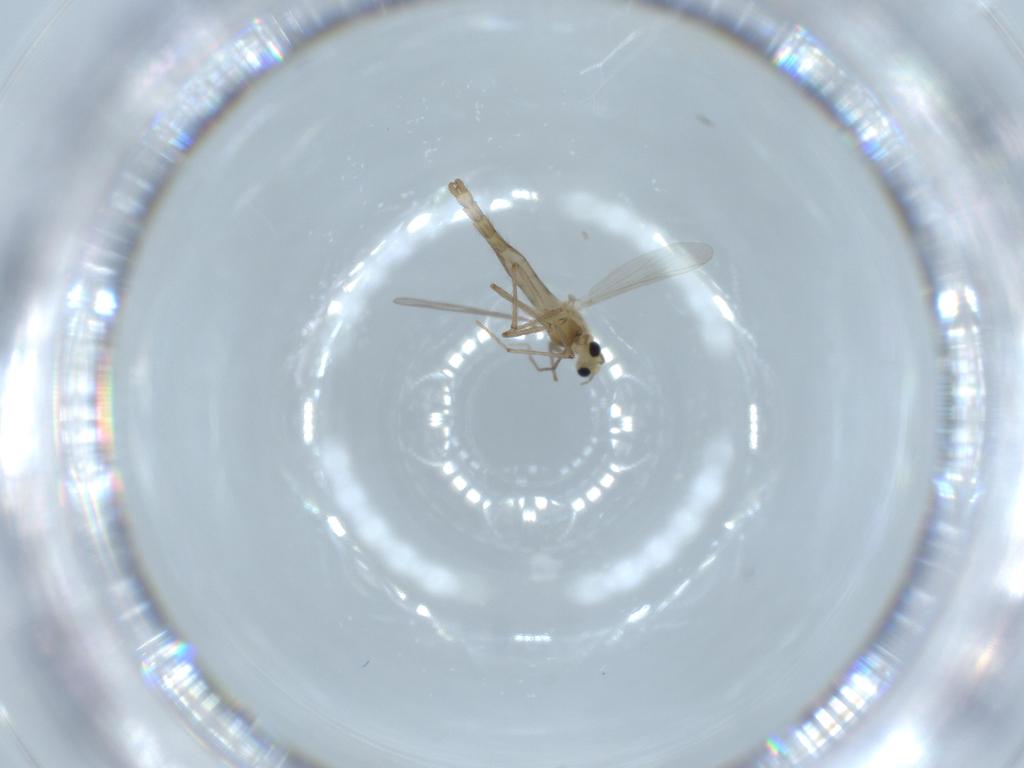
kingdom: Animalia
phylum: Arthropoda
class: Insecta
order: Diptera
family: Chironomidae
